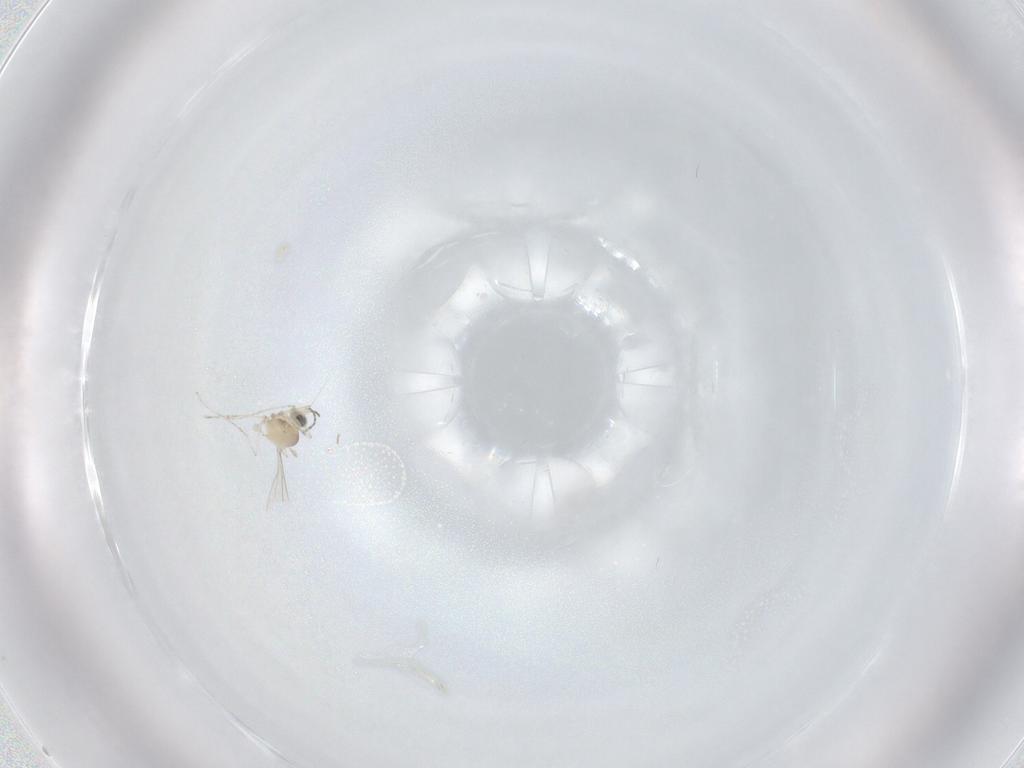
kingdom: Animalia
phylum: Arthropoda
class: Insecta
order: Diptera
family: Cecidomyiidae
